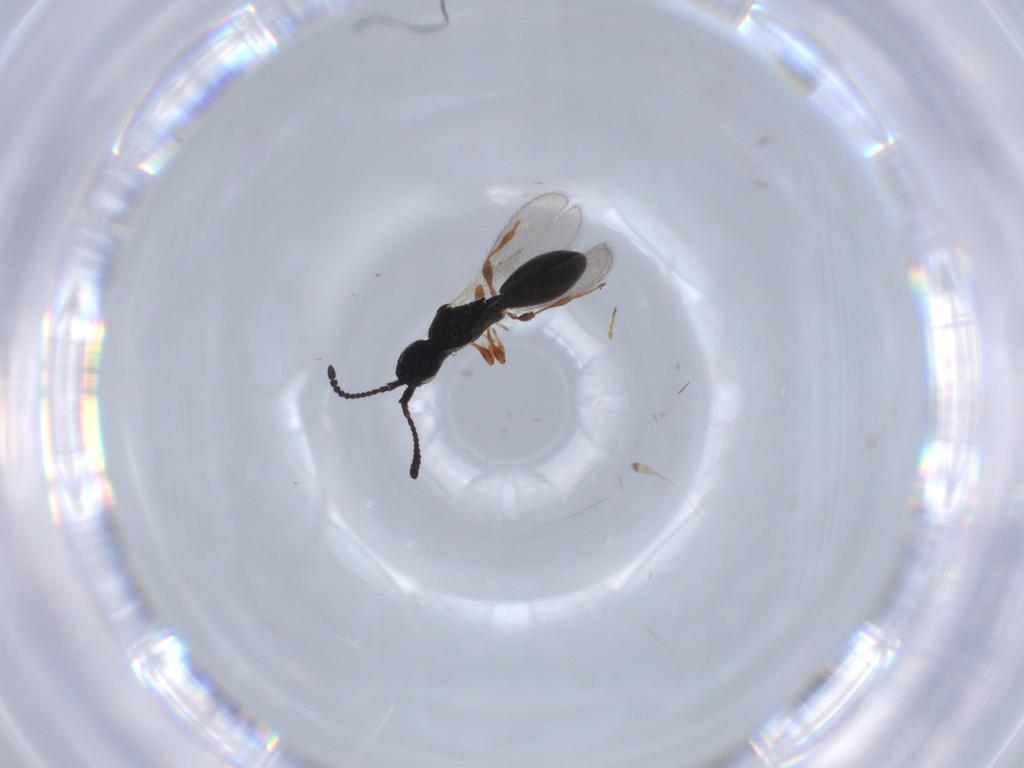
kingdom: Animalia
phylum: Arthropoda
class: Insecta
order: Hymenoptera
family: Diapriidae
